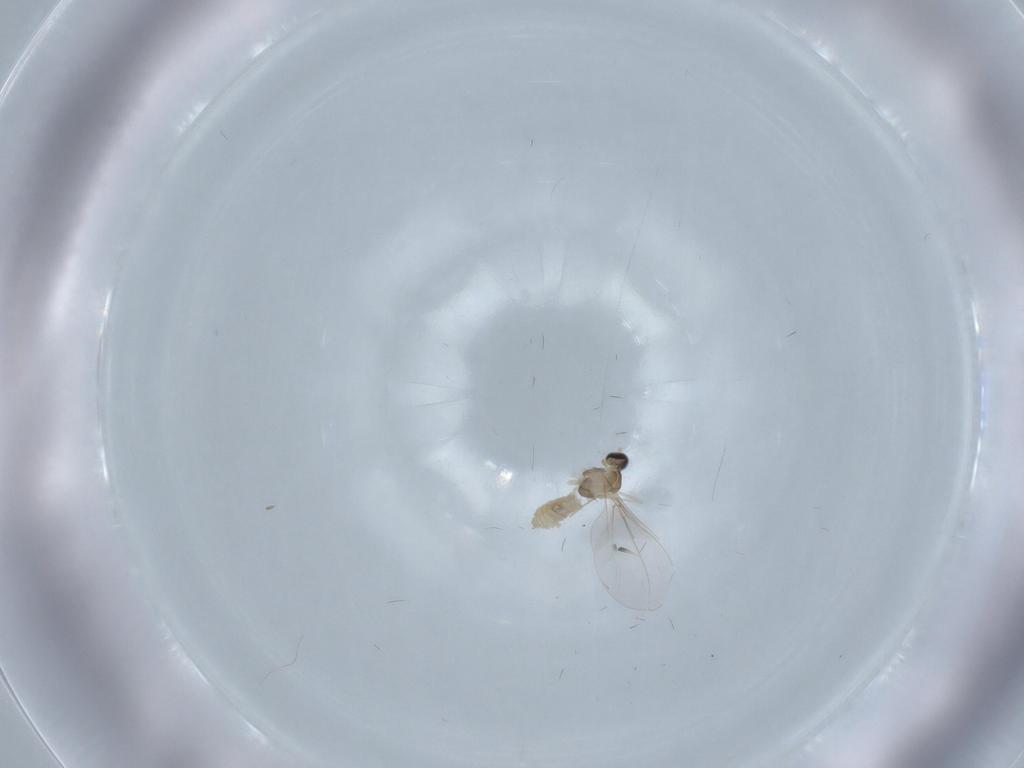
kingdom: Animalia
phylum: Arthropoda
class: Insecta
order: Diptera
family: Cecidomyiidae
